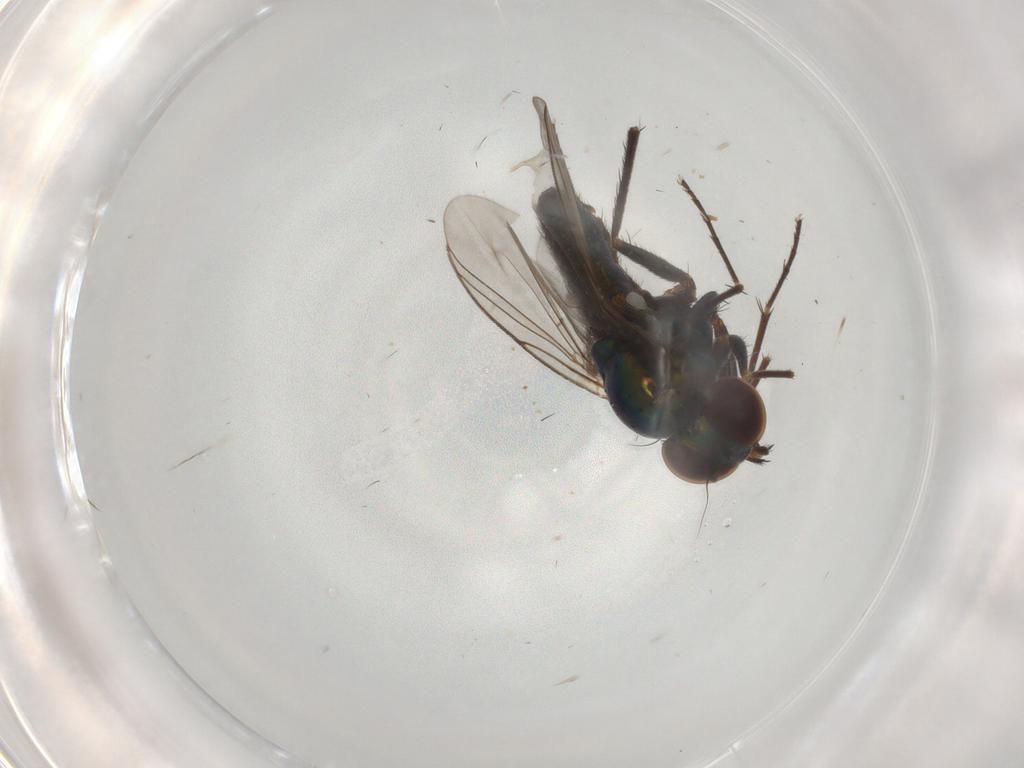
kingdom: Animalia
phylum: Arthropoda
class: Insecta
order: Diptera
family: Dolichopodidae
